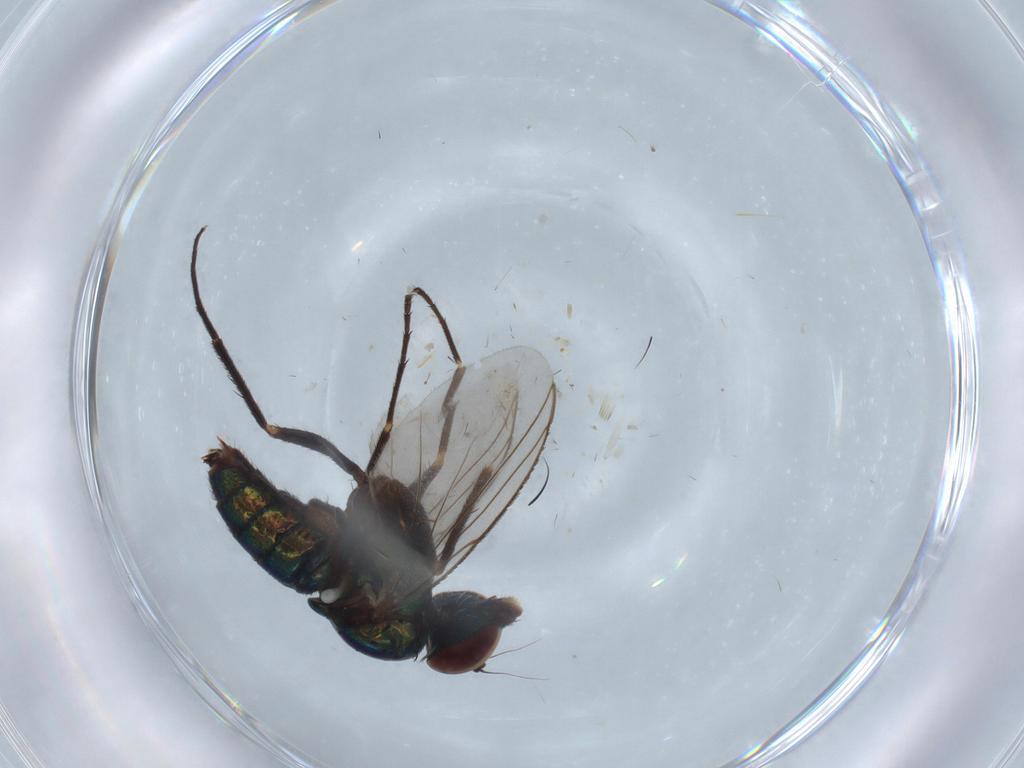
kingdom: Animalia
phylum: Arthropoda
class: Insecta
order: Diptera
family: Dolichopodidae
